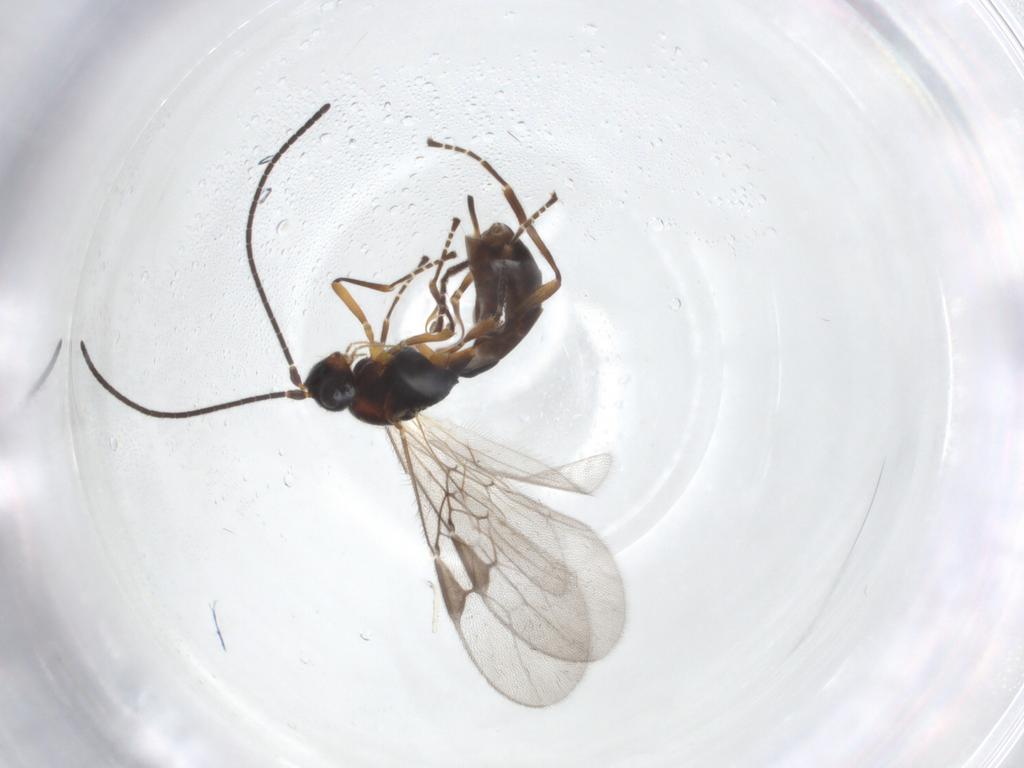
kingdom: Animalia
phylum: Arthropoda
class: Insecta
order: Hymenoptera
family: Braconidae
